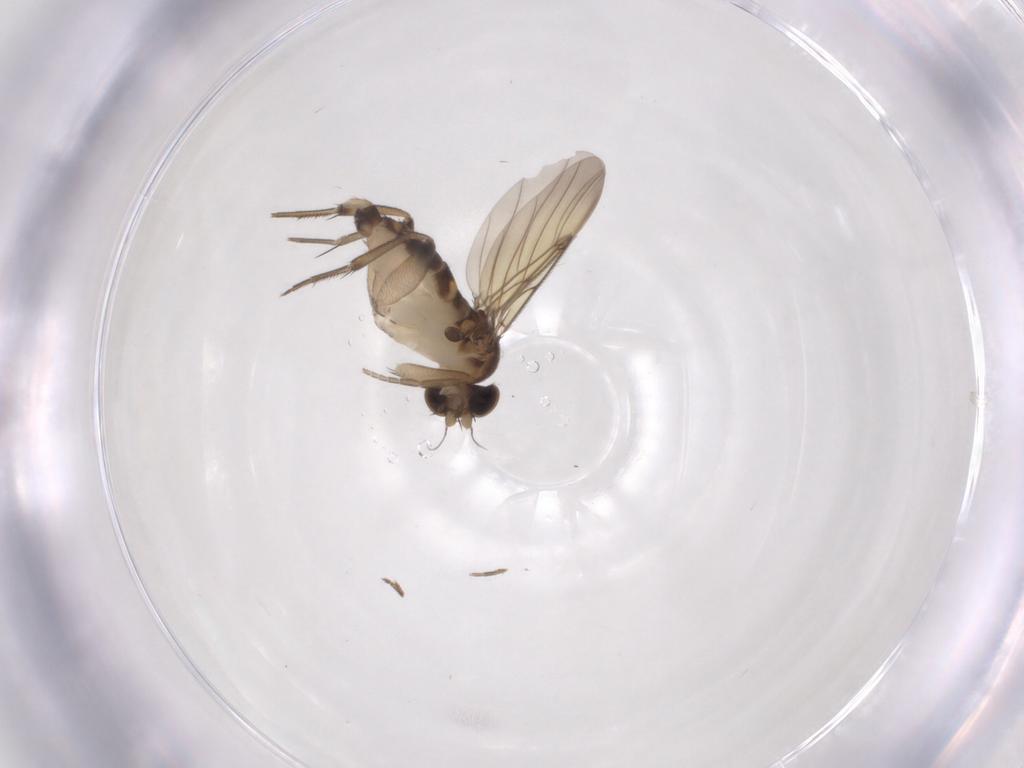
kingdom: Animalia
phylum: Arthropoda
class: Insecta
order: Diptera
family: Phoridae
